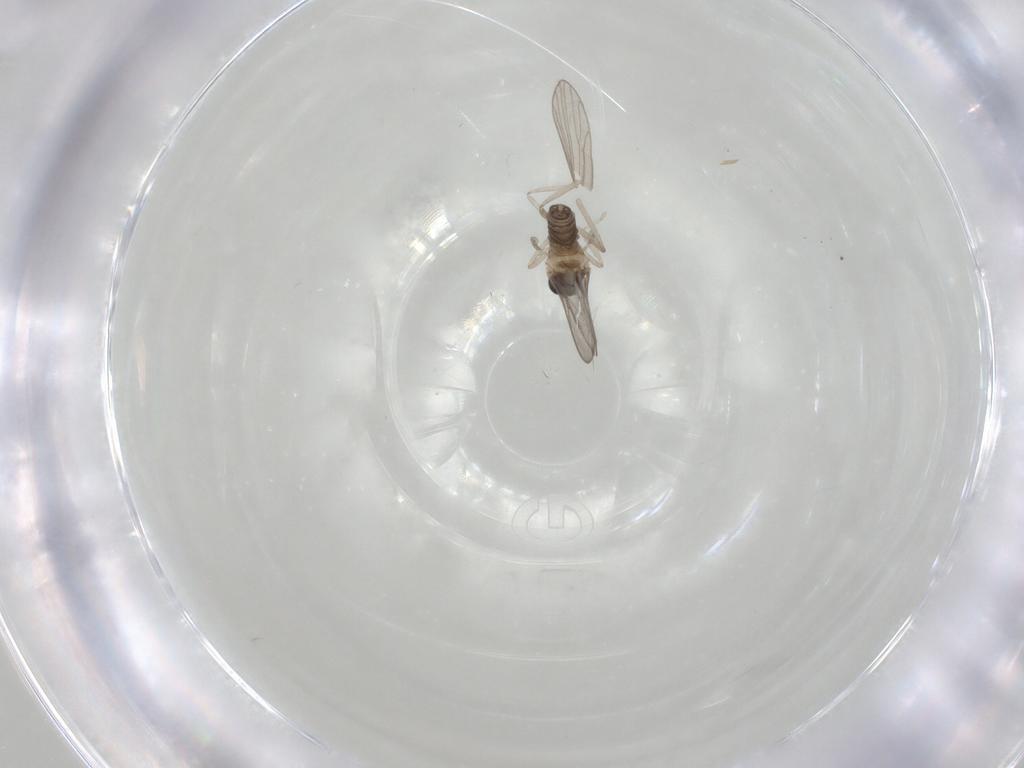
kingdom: Animalia
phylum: Arthropoda
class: Insecta
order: Diptera
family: Cecidomyiidae
